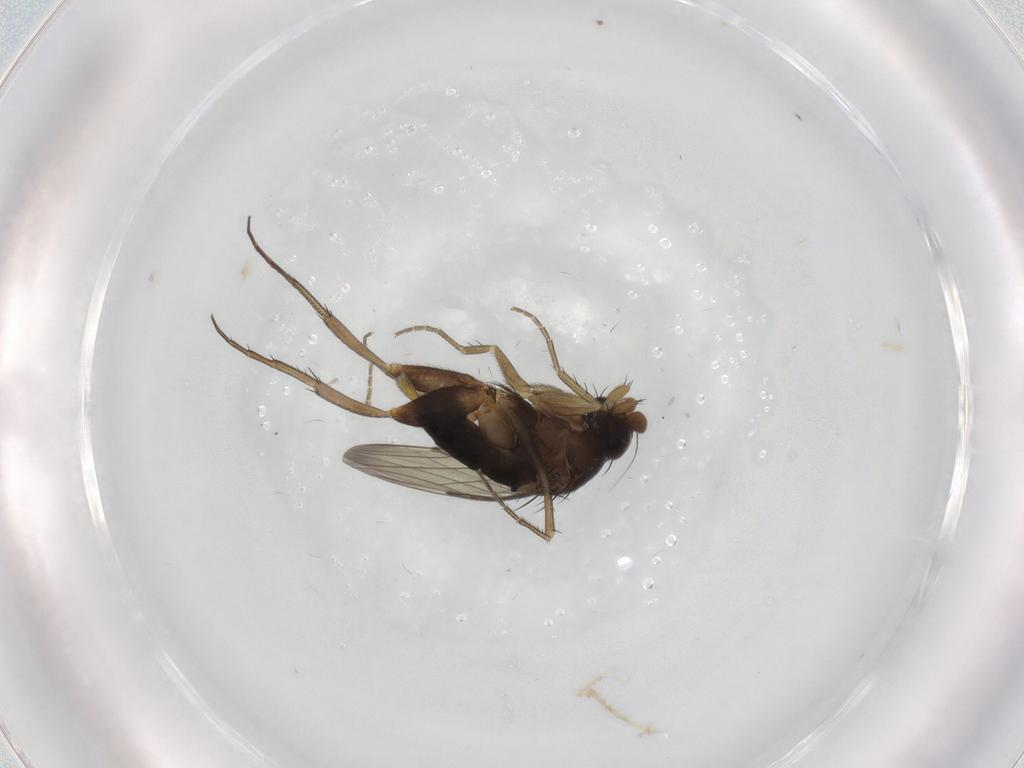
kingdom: Animalia
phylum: Arthropoda
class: Insecta
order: Diptera
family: Phoridae
